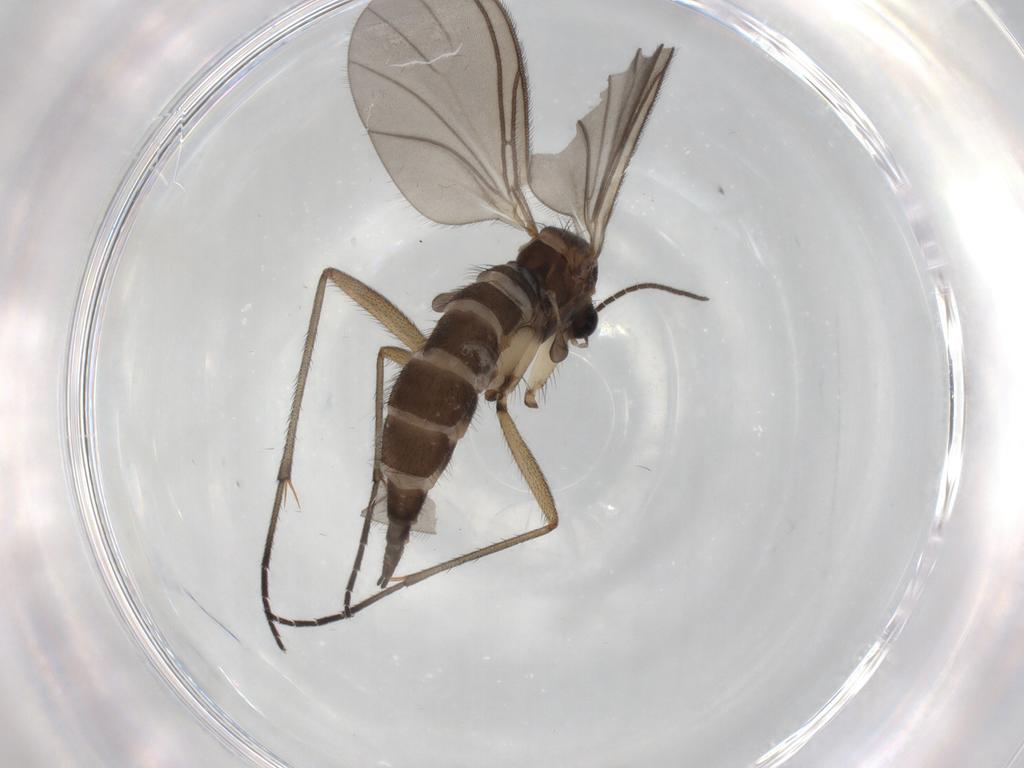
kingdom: Animalia
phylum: Arthropoda
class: Insecta
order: Diptera
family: Sciaridae
